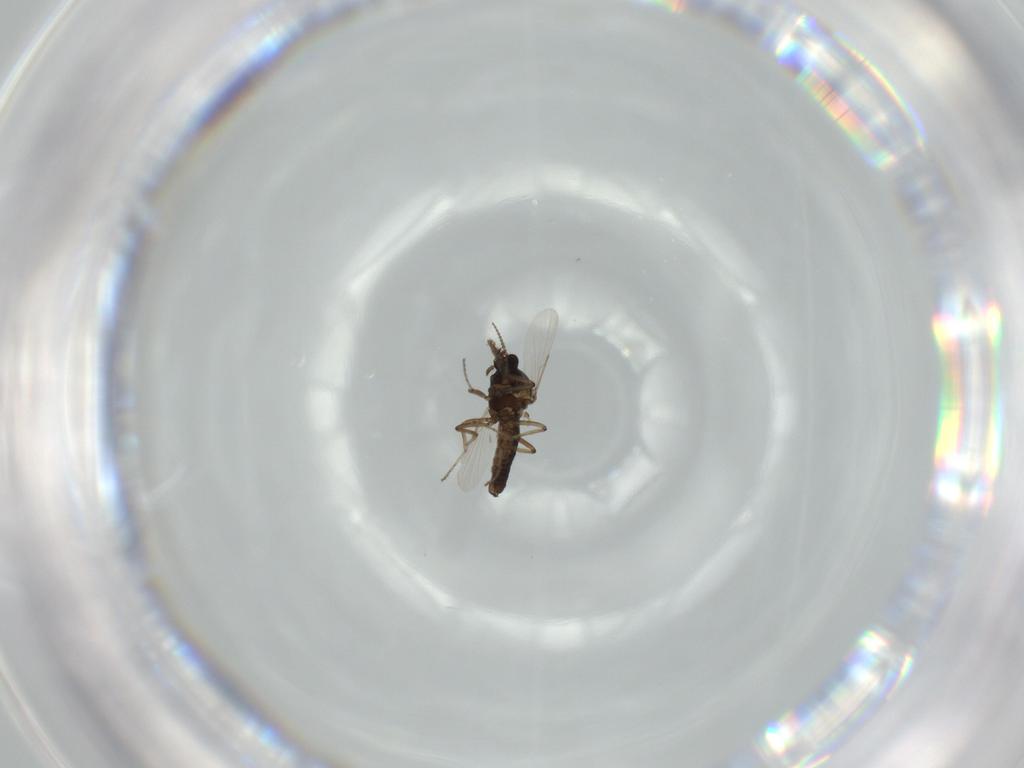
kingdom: Animalia
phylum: Arthropoda
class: Insecta
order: Diptera
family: Ceratopogonidae
